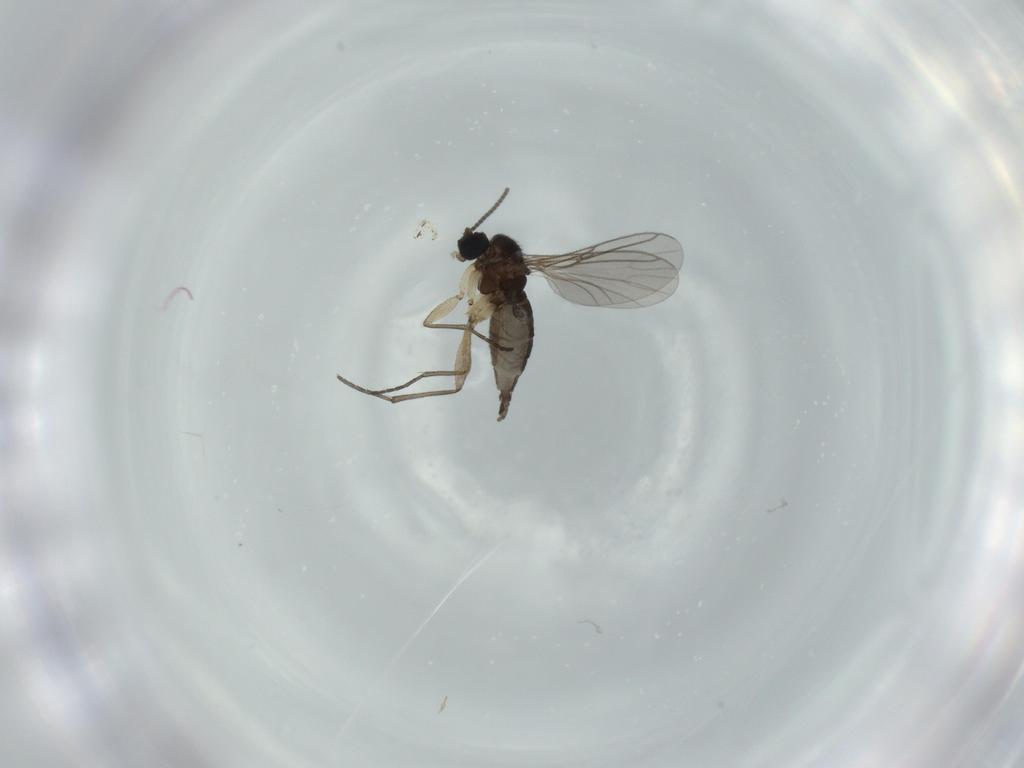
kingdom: Animalia
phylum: Arthropoda
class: Insecta
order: Diptera
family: Sciaridae
